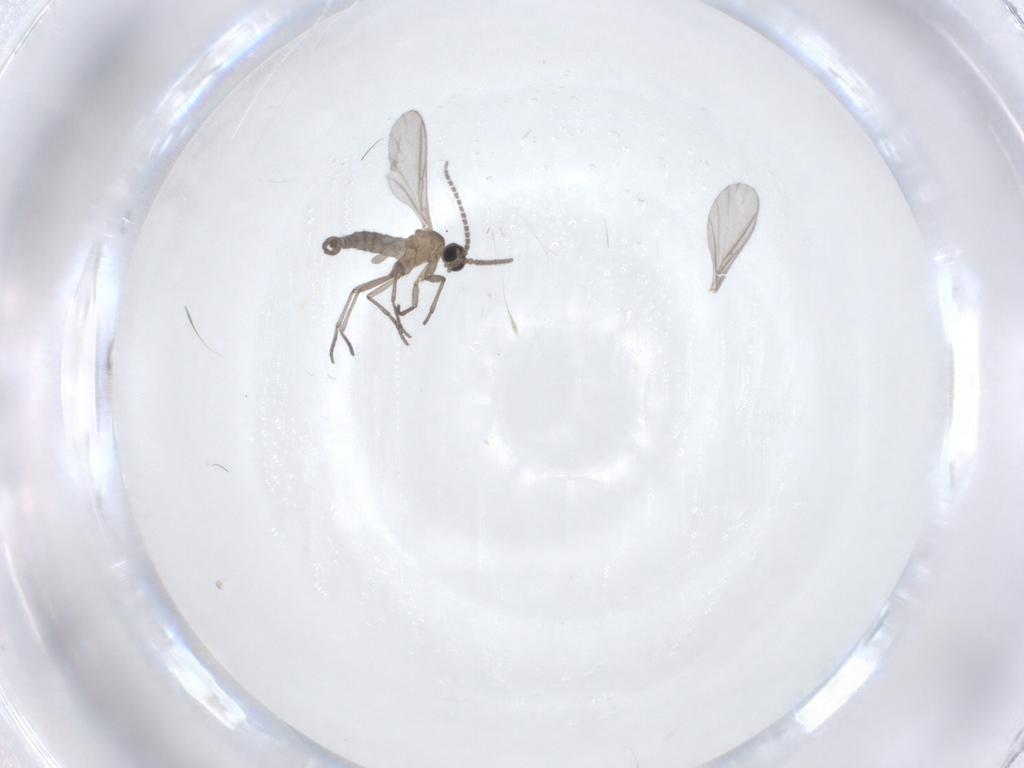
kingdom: Animalia
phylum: Arthropoda
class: Insecta
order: Diptera
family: Sciaridae
